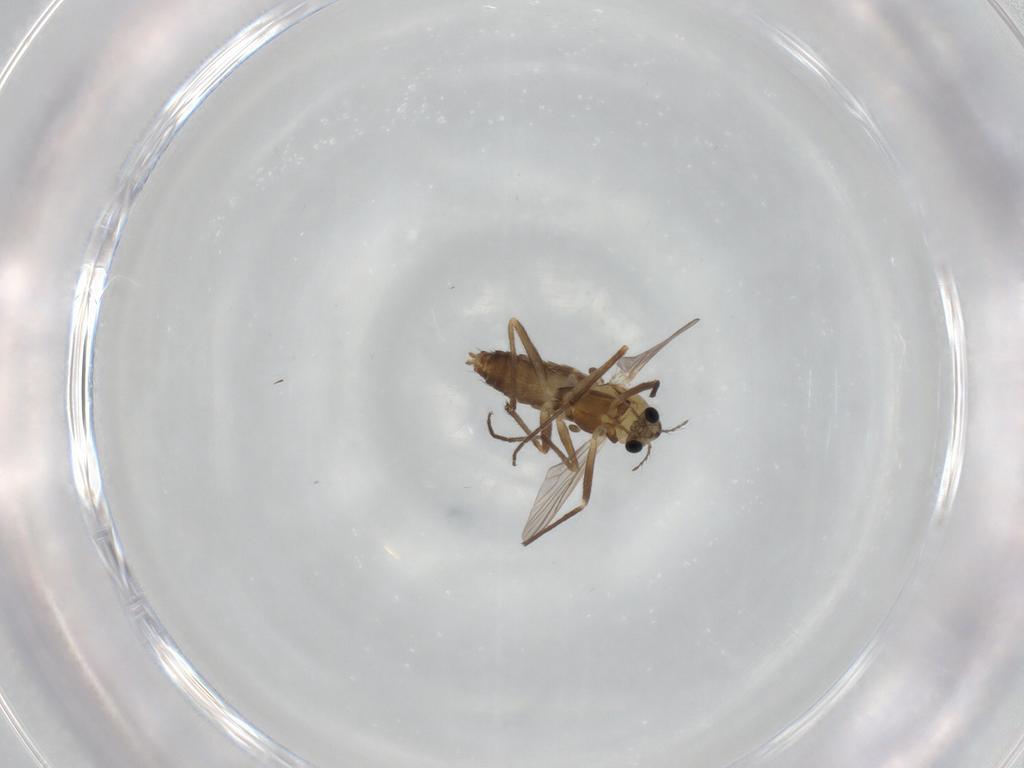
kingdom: Animalia
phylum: Arthropoda
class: Insecta
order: Diptera
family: Chironomidae
